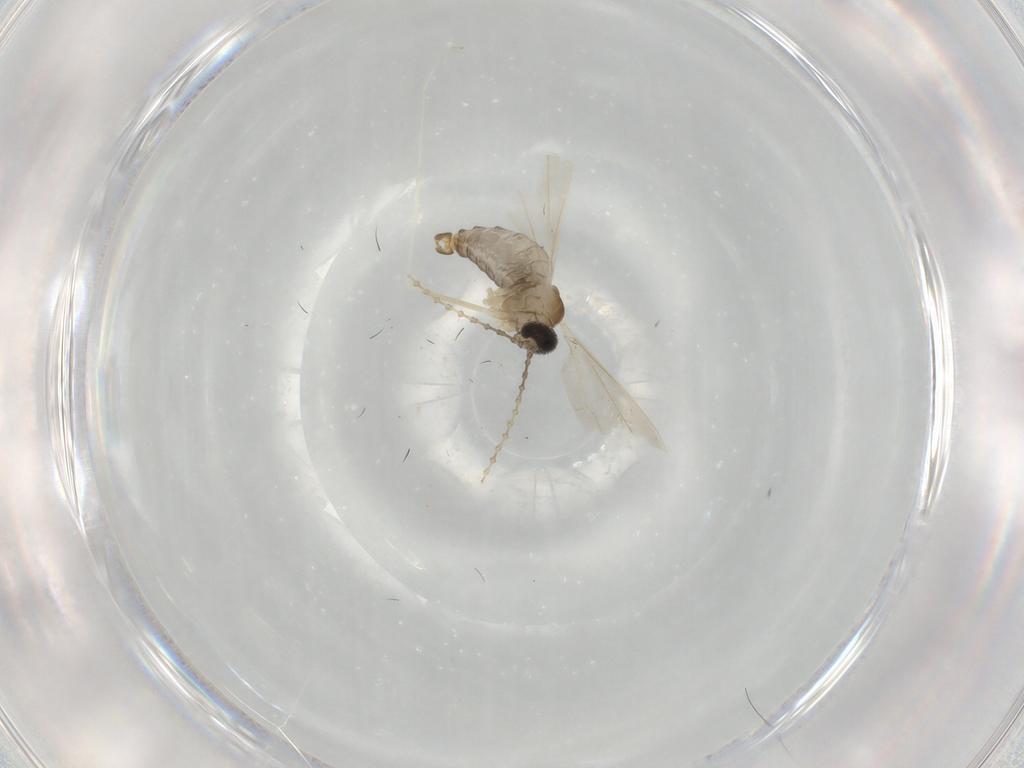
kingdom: Animalia
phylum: Arthropoda
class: Insecta
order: Diptera
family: Cecidomyiidae
